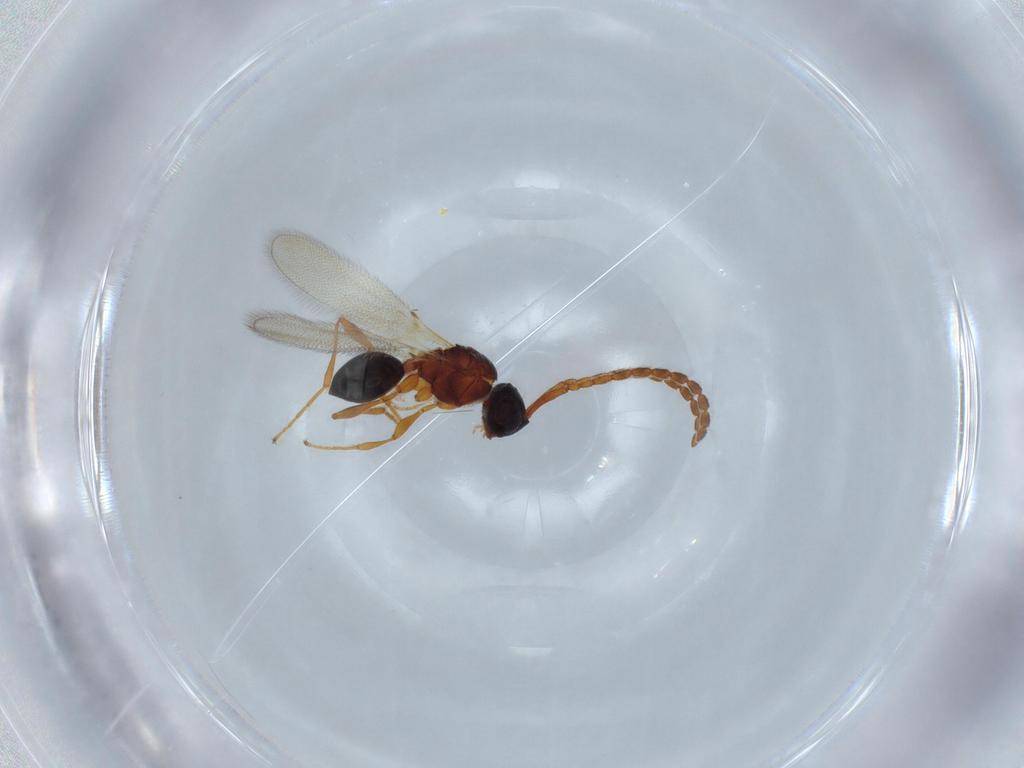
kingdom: Animalia
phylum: Arthropoda
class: Insecta
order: Hymenoptera
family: Diapriidae
